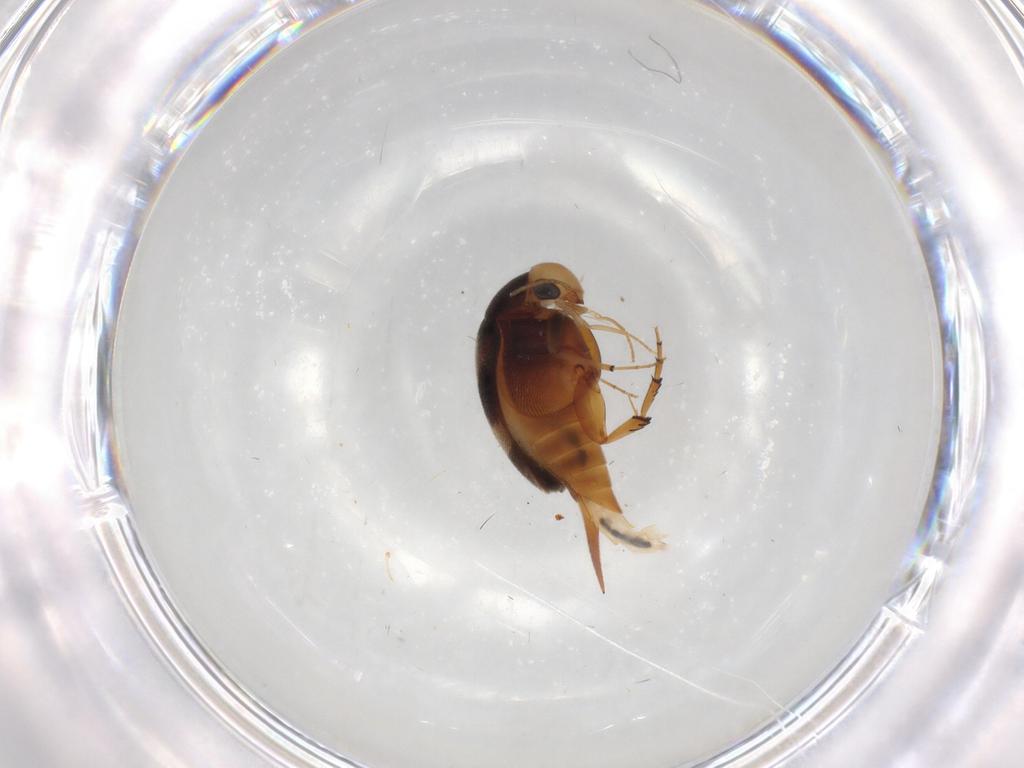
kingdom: Animalia
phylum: Arthropoda
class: Insecta
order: Coleoptera
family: Mordellidae
